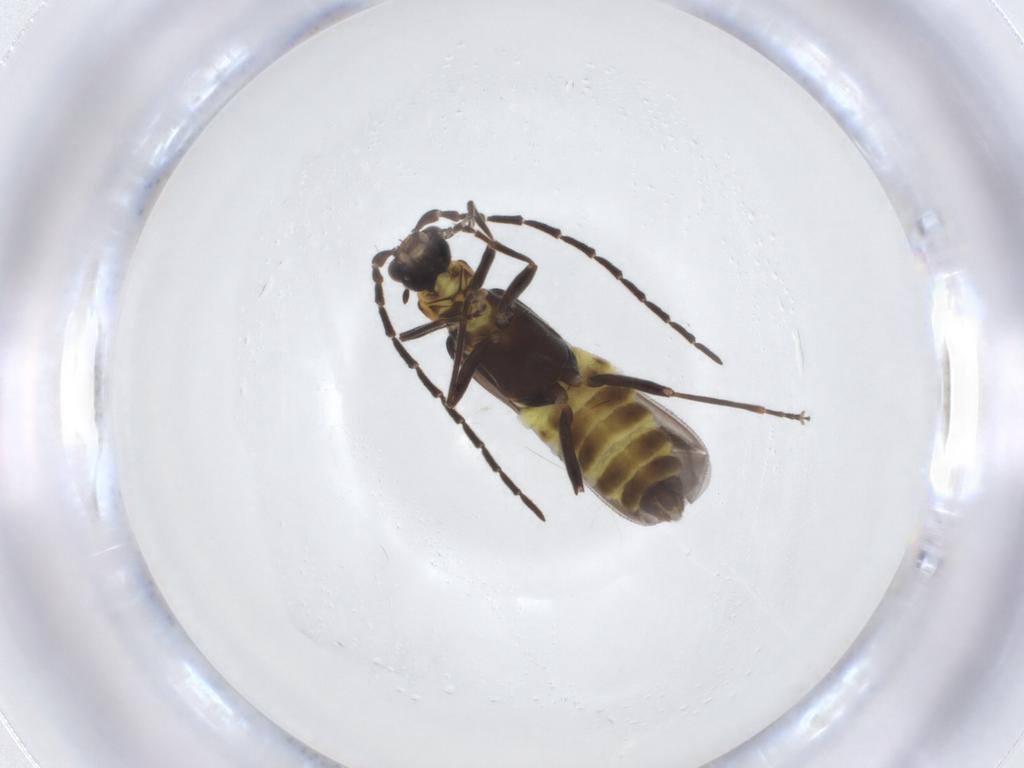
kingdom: Animalia
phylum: Arthropoda
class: Insecta
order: Coleoptera
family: Cantharidae
